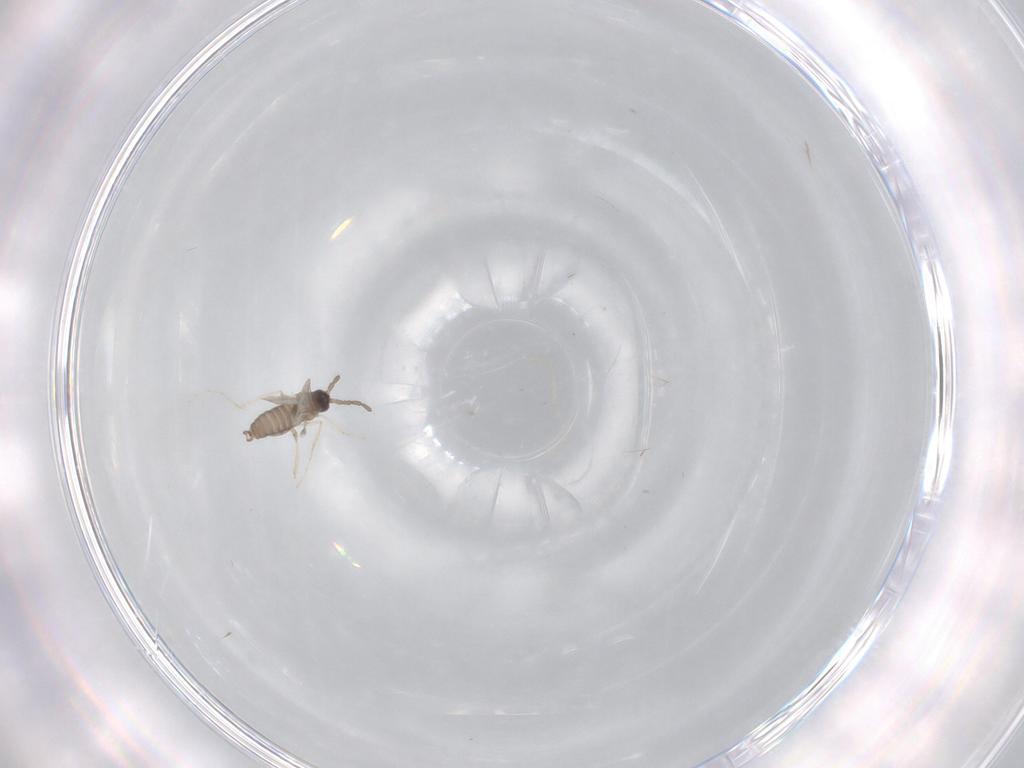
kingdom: Animalia
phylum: Arthropoda
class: Insecta
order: Diptera
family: Cecidomyiidae
